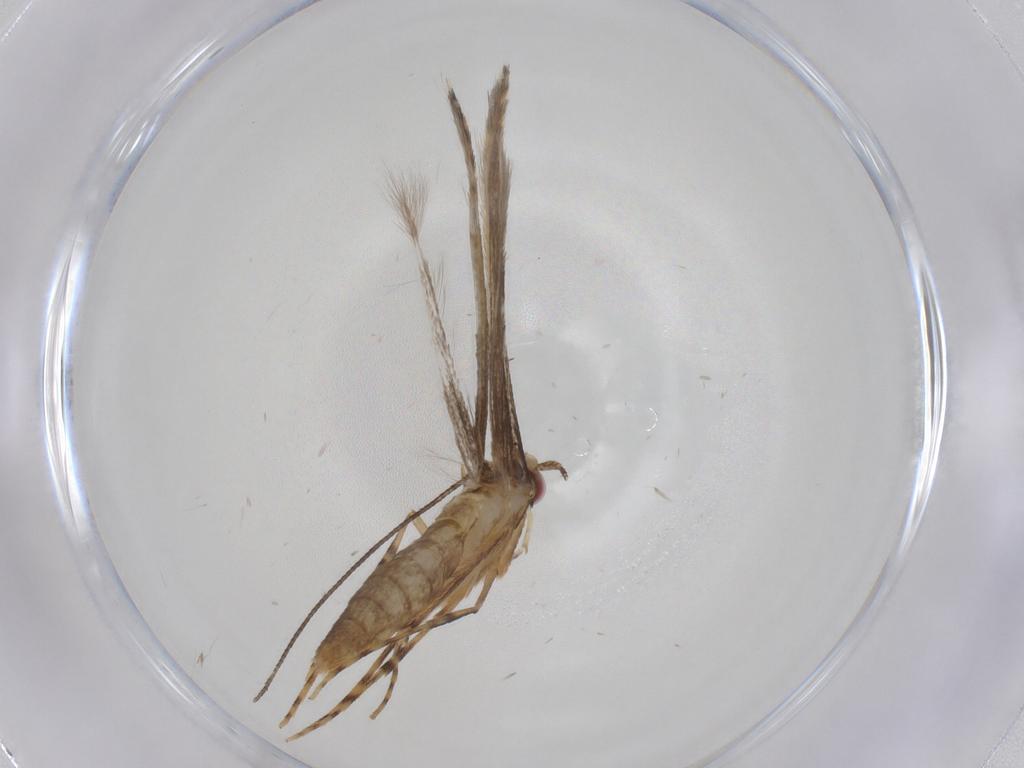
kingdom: Animalia
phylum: Arthropoda
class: Insecta
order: Lepidoptera
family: Gracillariidae
